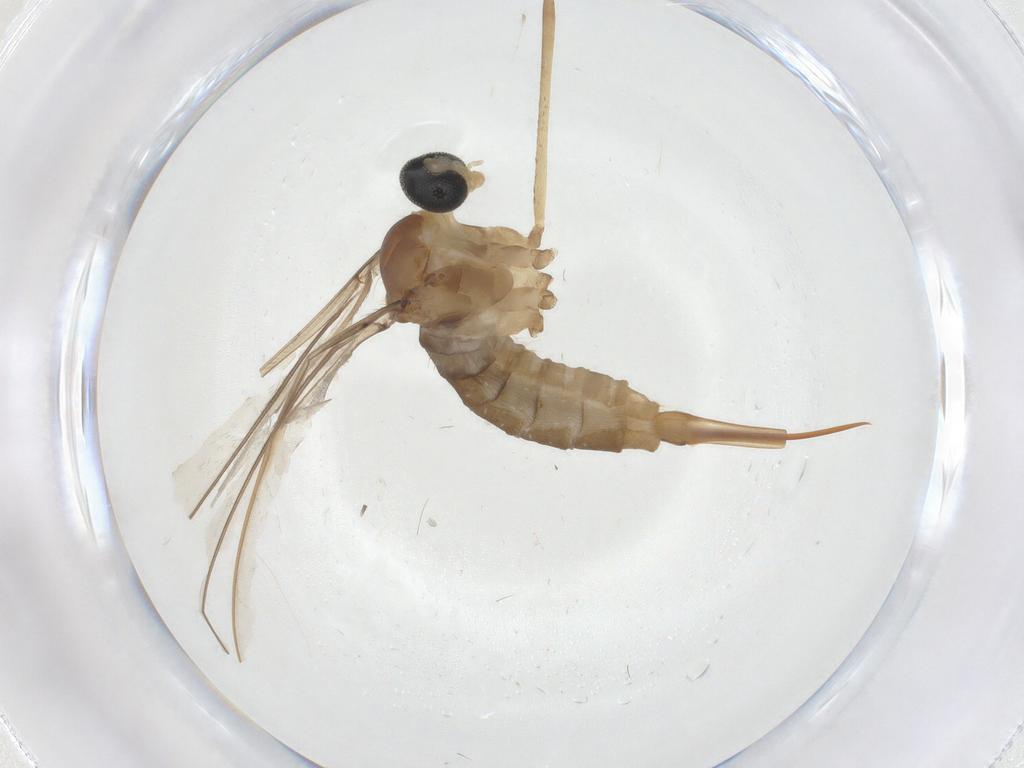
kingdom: Animalia
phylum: Arthropoda
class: Insecta
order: Diptera
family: Cecidomyiidae
